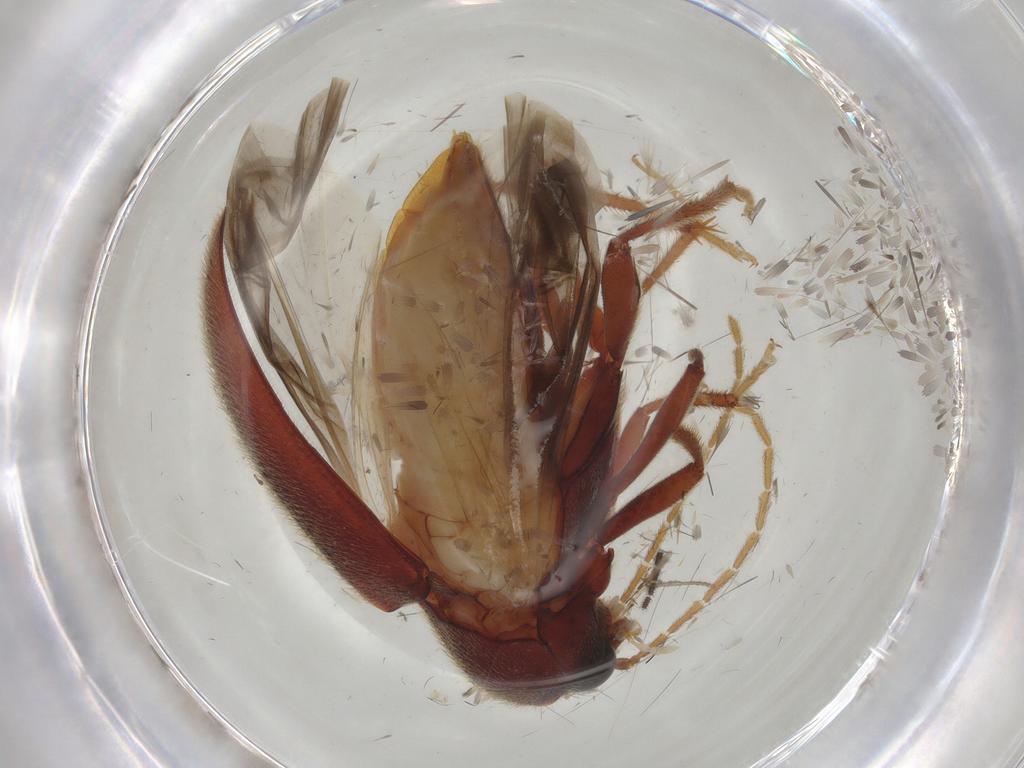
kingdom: Animalia
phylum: Arthropoda
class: Insecta
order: Coleoptera
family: Ptilodactylidae
